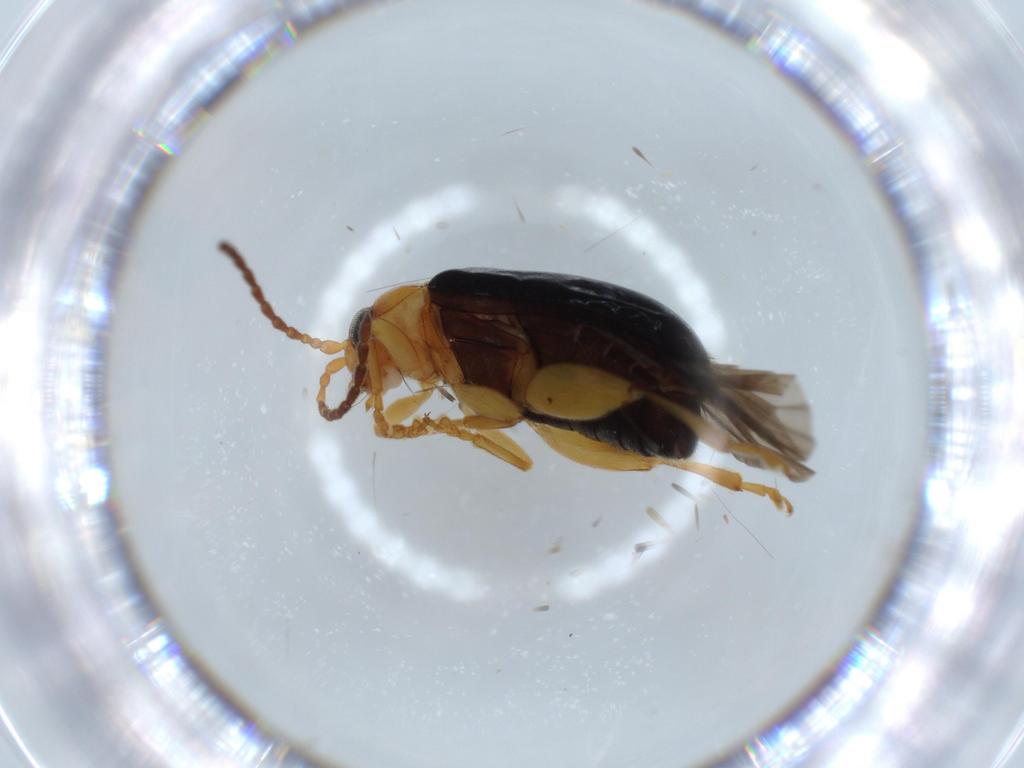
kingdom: Animalia
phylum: Arthropoda
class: Insecta
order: Coleoptera
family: Chrysomelidae
